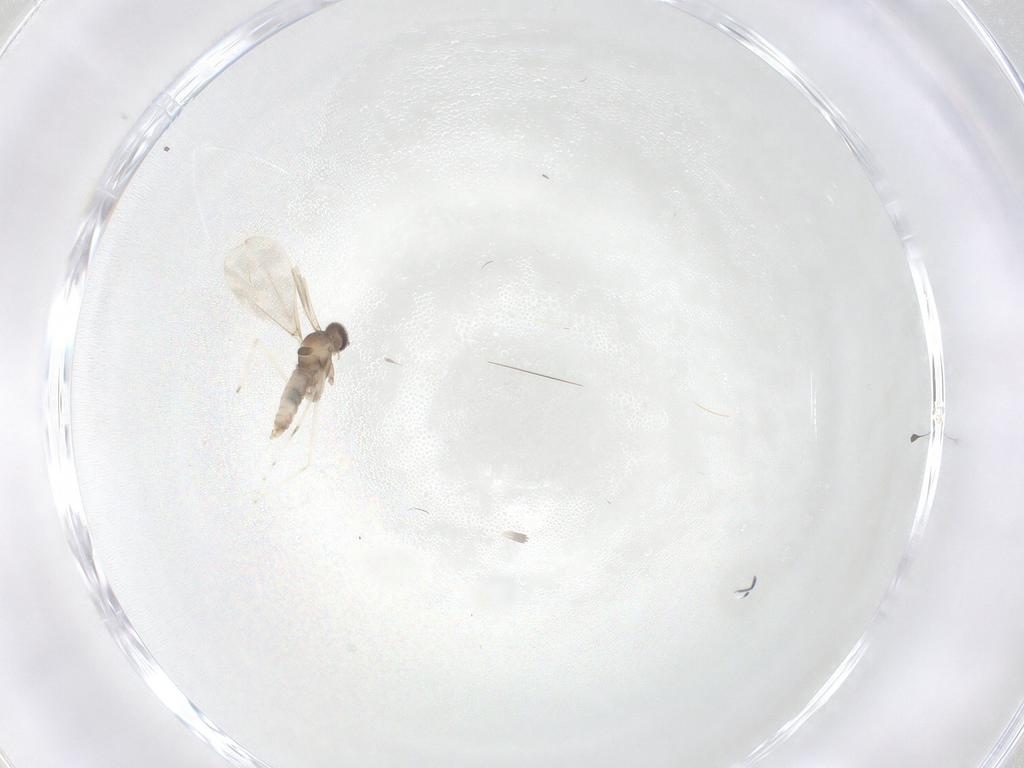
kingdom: Animalia
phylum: Arthropoda
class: Insecta
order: Diptera
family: Cecidomyiidae
